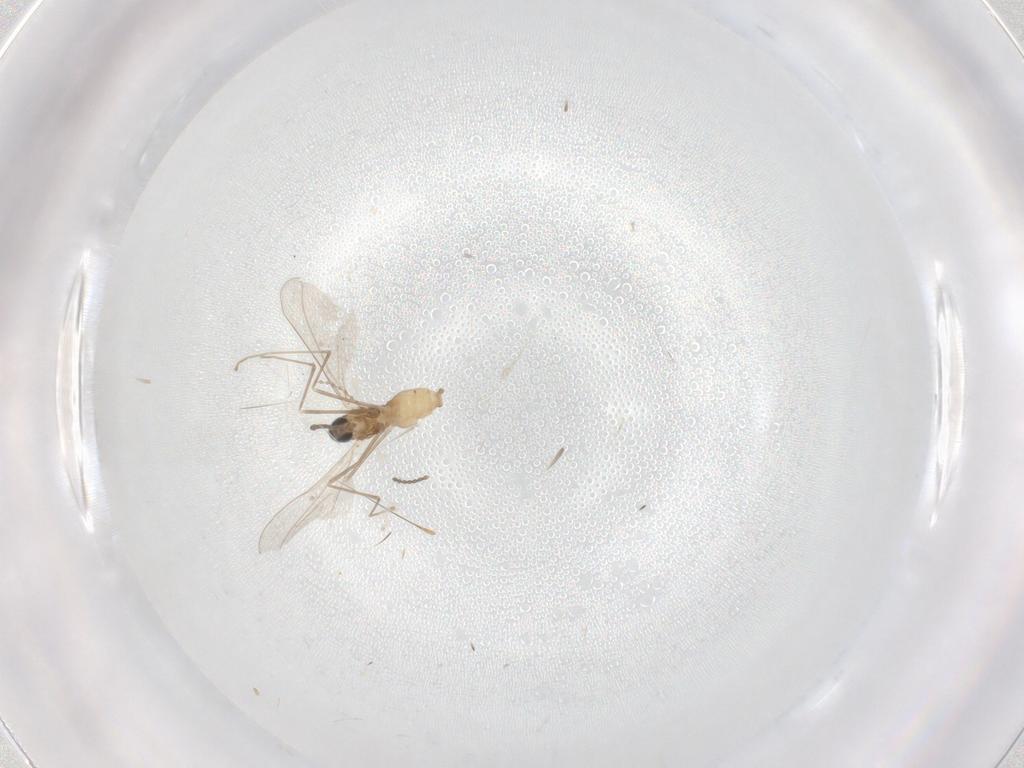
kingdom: Animalia
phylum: Arthropoda
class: Insecta
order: Diptera
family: Cecidomyiidae
